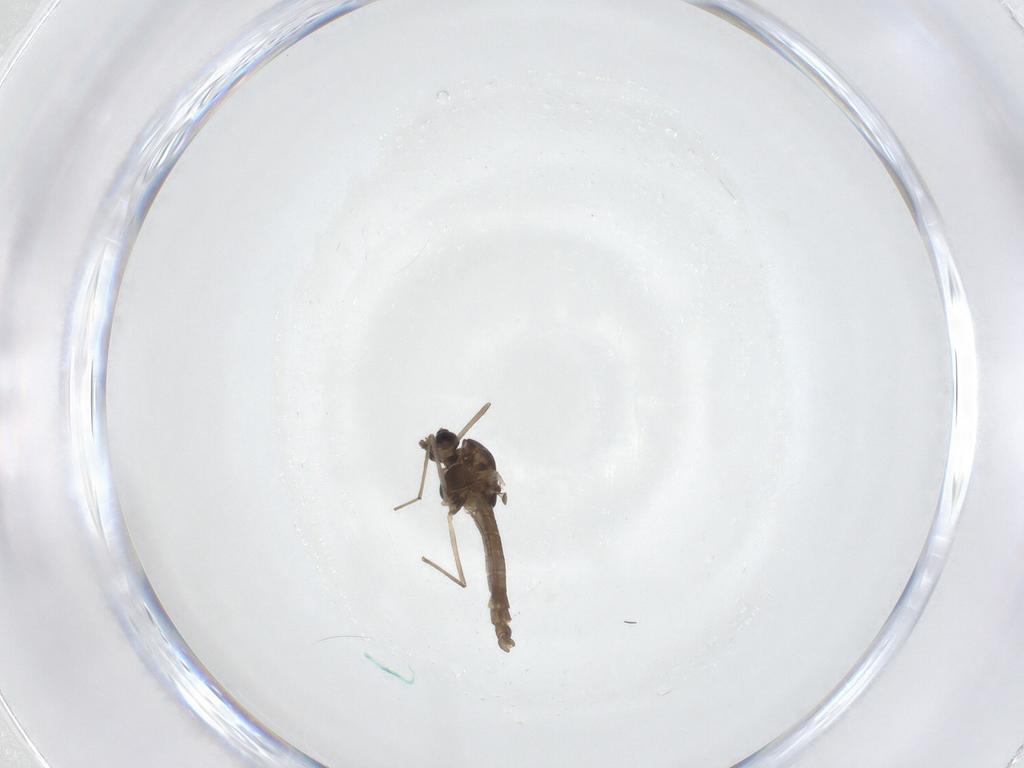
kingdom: Animalia
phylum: Arthropoda
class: Insecta
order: Diptera
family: Chironomidae
